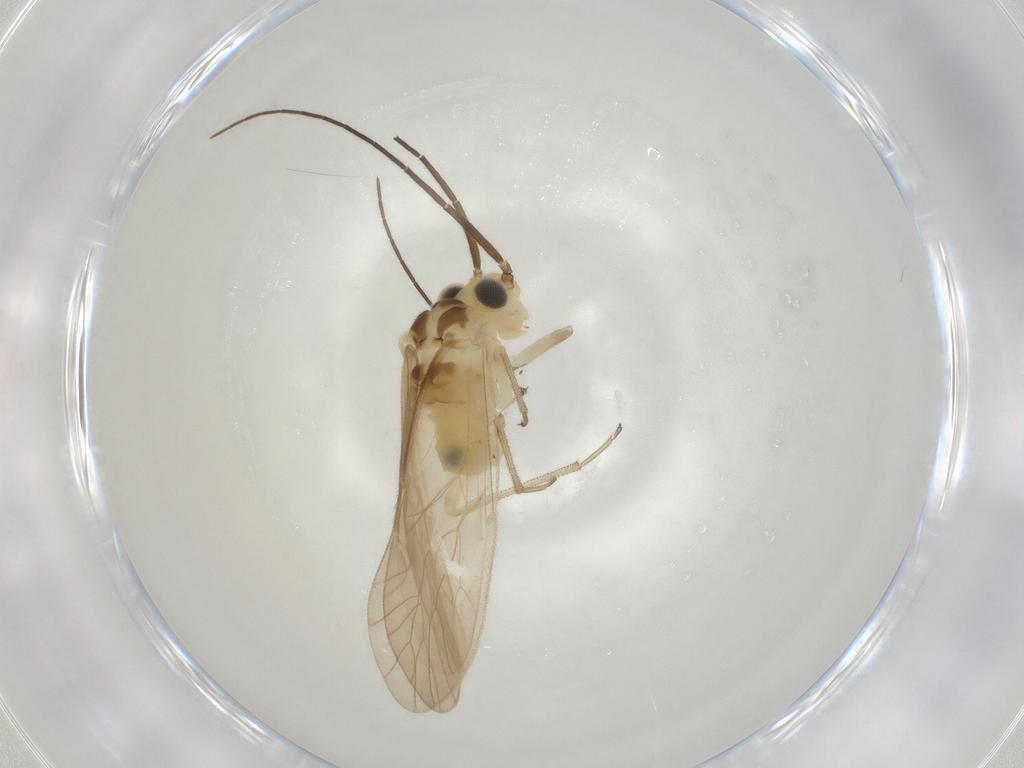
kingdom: Animalia
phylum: Arthropoda
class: Insecta
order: Psocodea
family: Caeciliusidae
